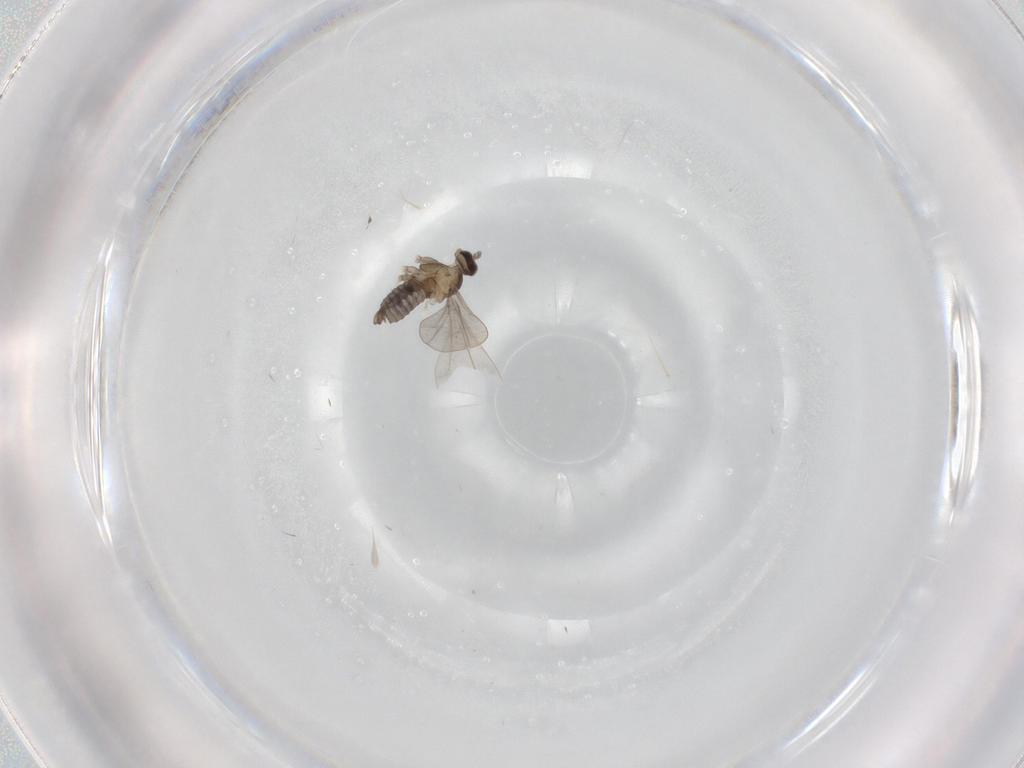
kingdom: Animalia
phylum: Arthropoda
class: Insecta
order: Diptera
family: Cecidomyiidae
